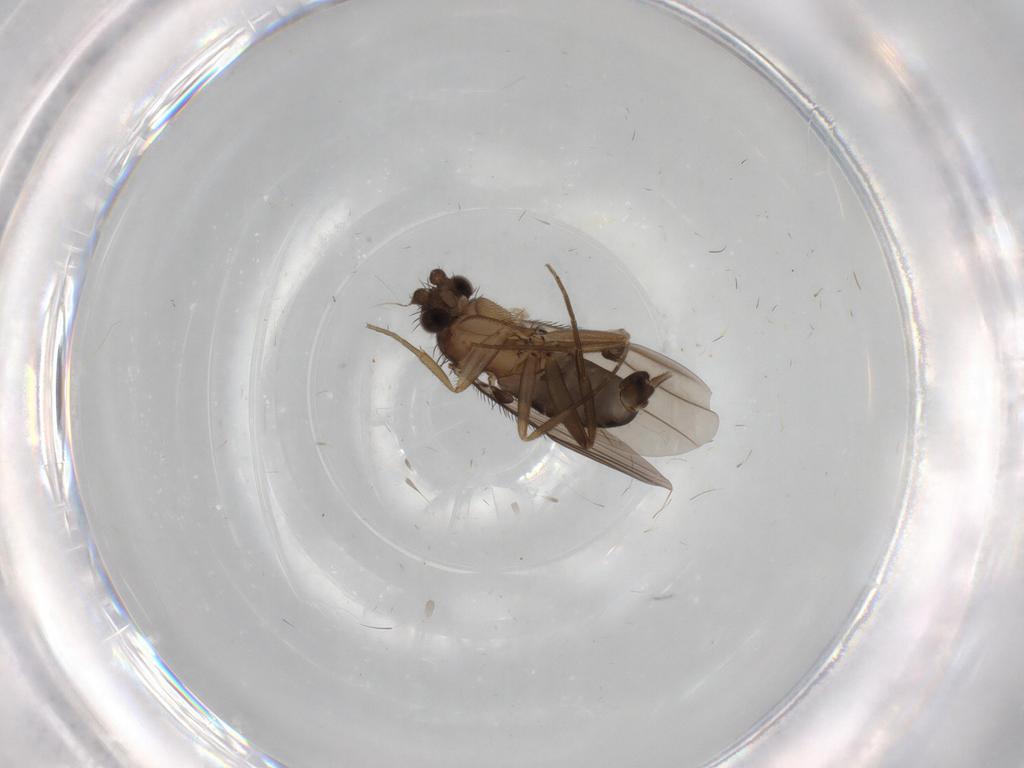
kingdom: Animalia
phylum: Arthropoda
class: Insecta
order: Diptera
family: Phoridae
